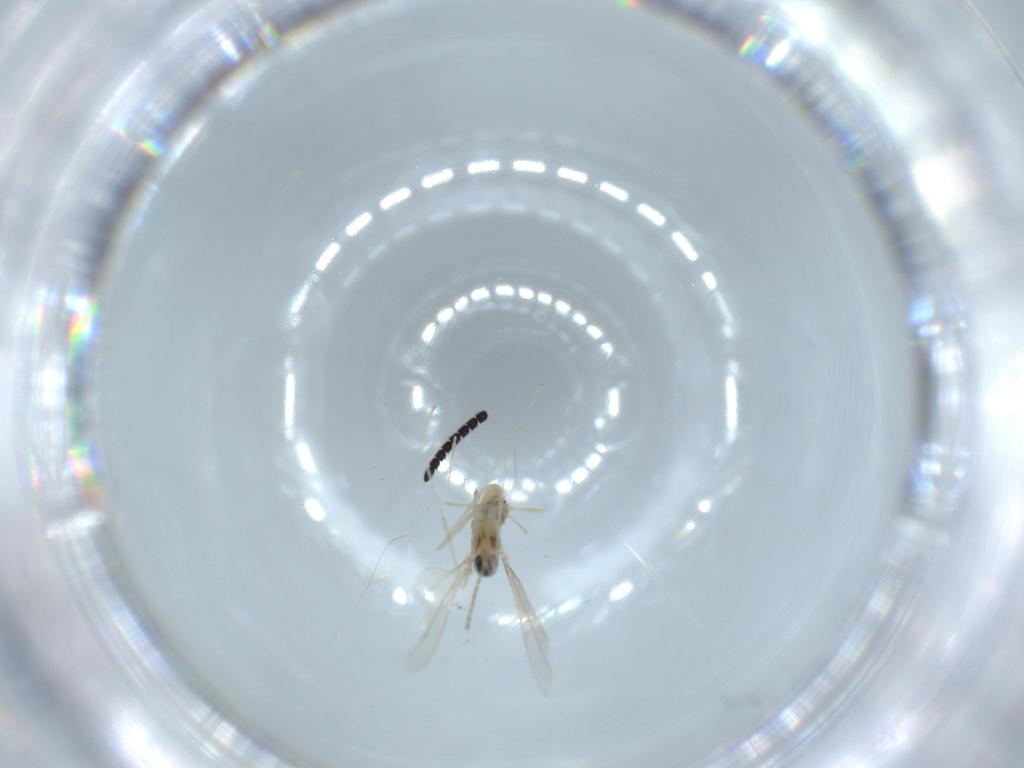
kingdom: Animalia
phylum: Arthropoda
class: Insecta
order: Diptera
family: Cecidomyiidae
